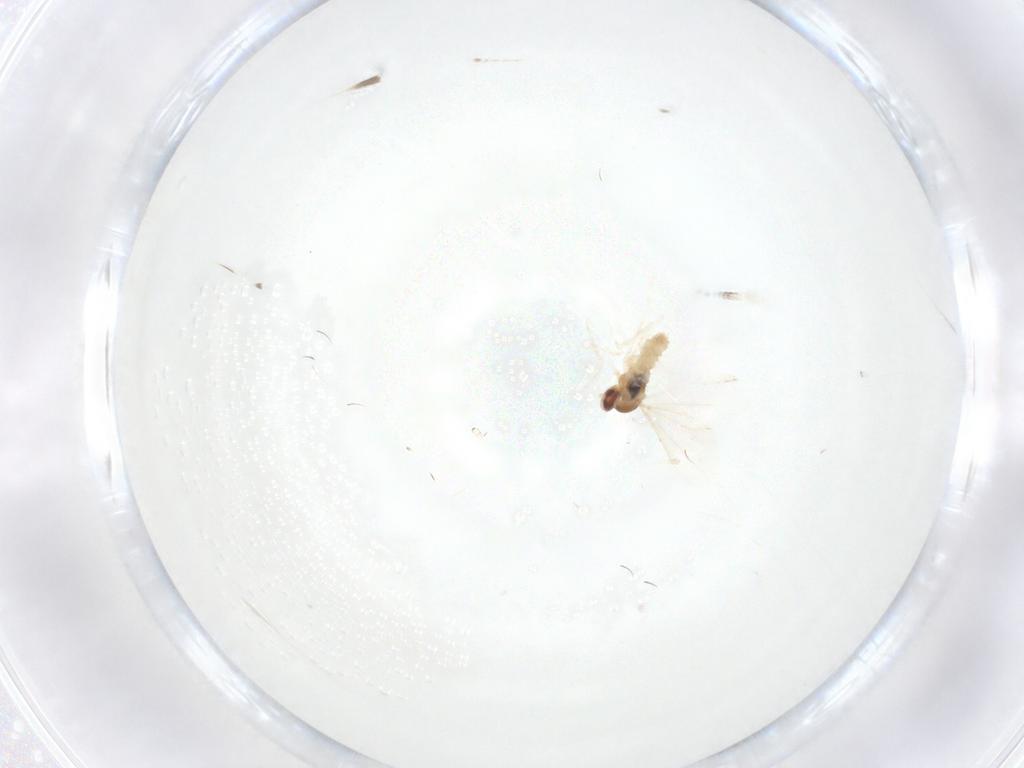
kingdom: Animalia
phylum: Arthropoda
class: Insecta
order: Diptera
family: Cecidomyiidae
